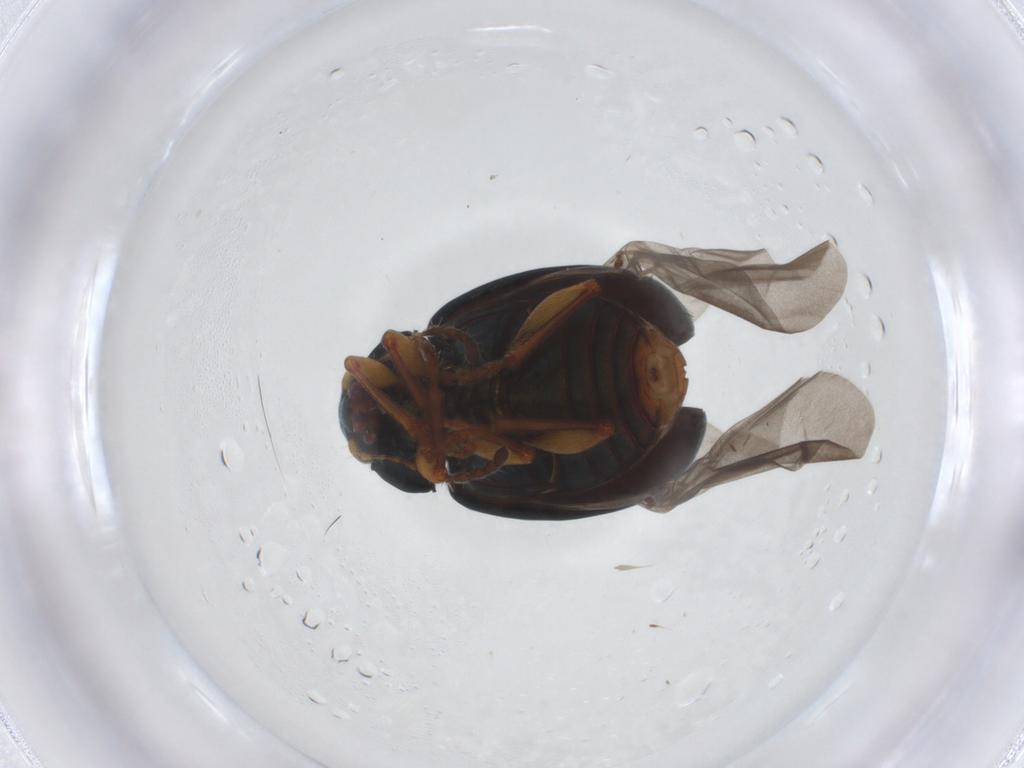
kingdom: Animalia
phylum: Arthropoda
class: Insecta
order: Coleoptera
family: Chrysomelidae
